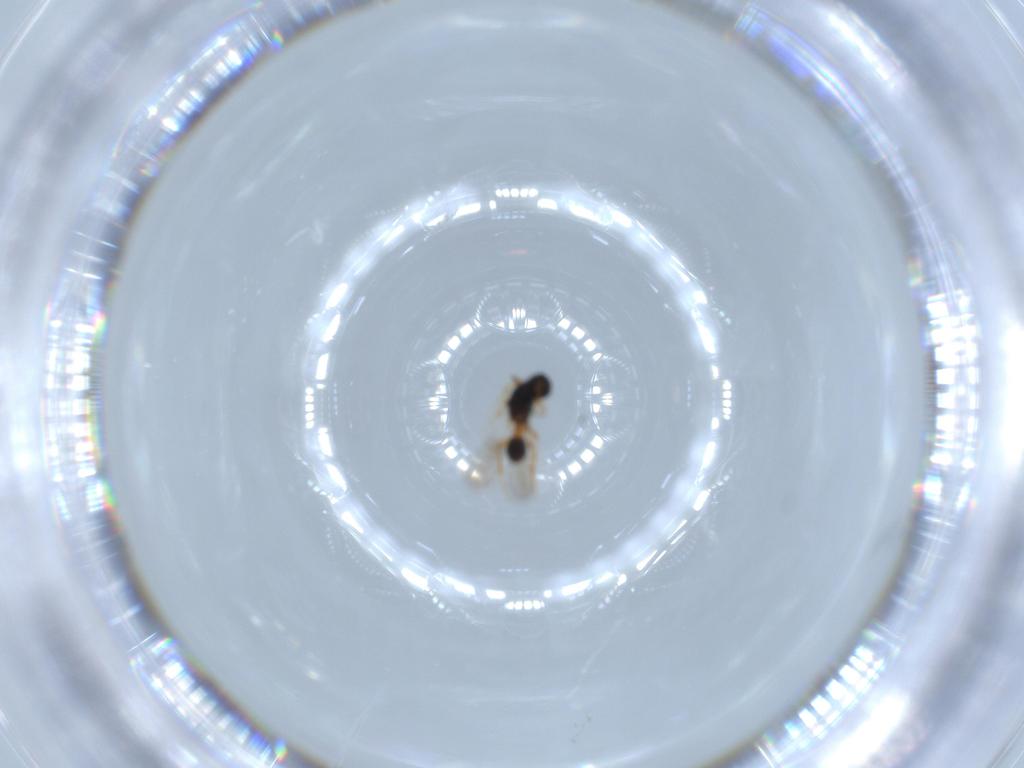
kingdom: Animalia
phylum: Arthropoda
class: Insecta
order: Hymenoptera
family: Platygastridae
